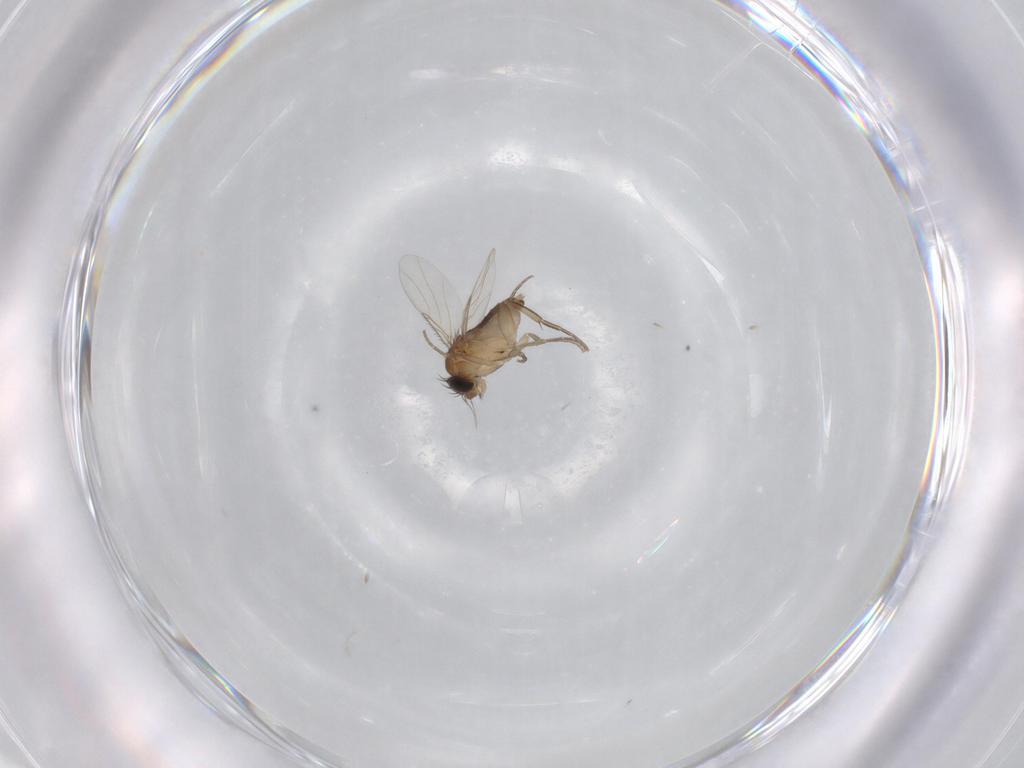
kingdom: Animalia
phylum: Arthropoda
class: Insecta
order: Diptera
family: Phoridae
